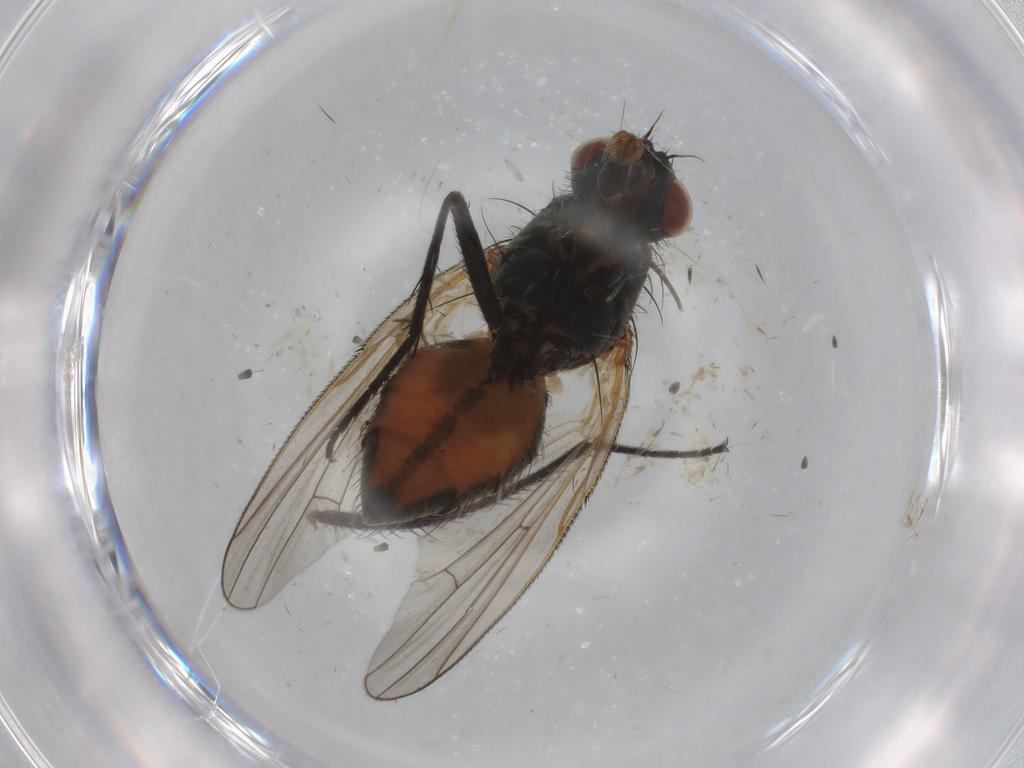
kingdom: Animalia
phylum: Arthropoda
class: Insecta
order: Diptera
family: Anthomyiidae
